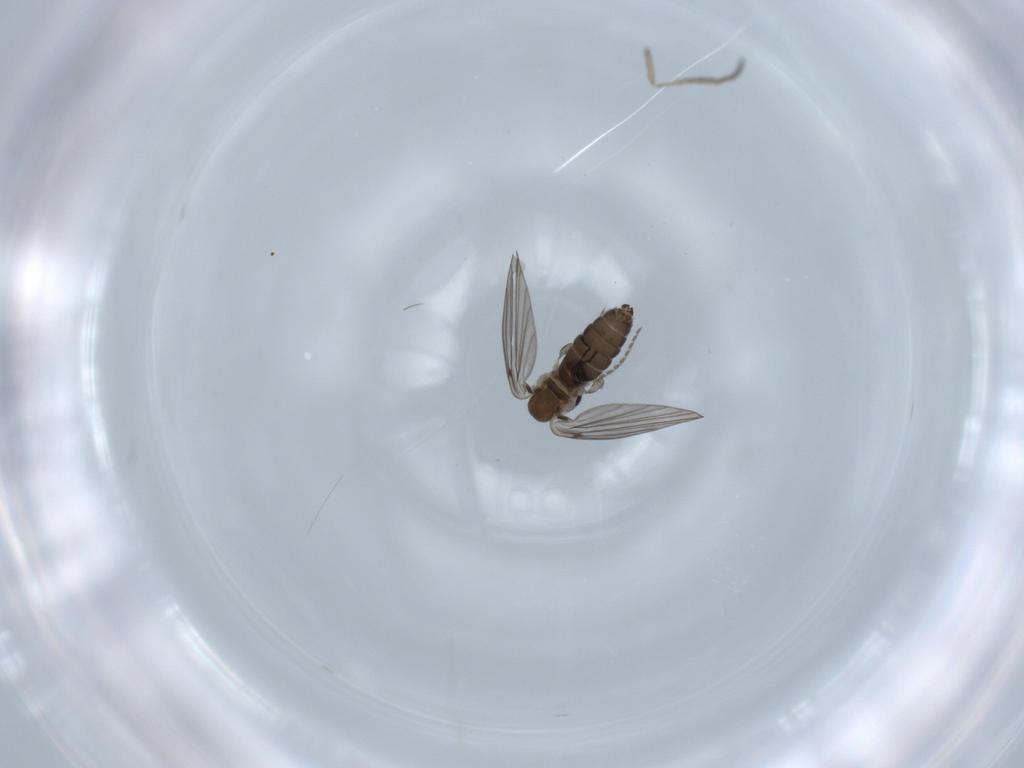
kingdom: Animalia
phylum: Arthropoda
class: Insecta
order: Diptera
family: Psychodidae
